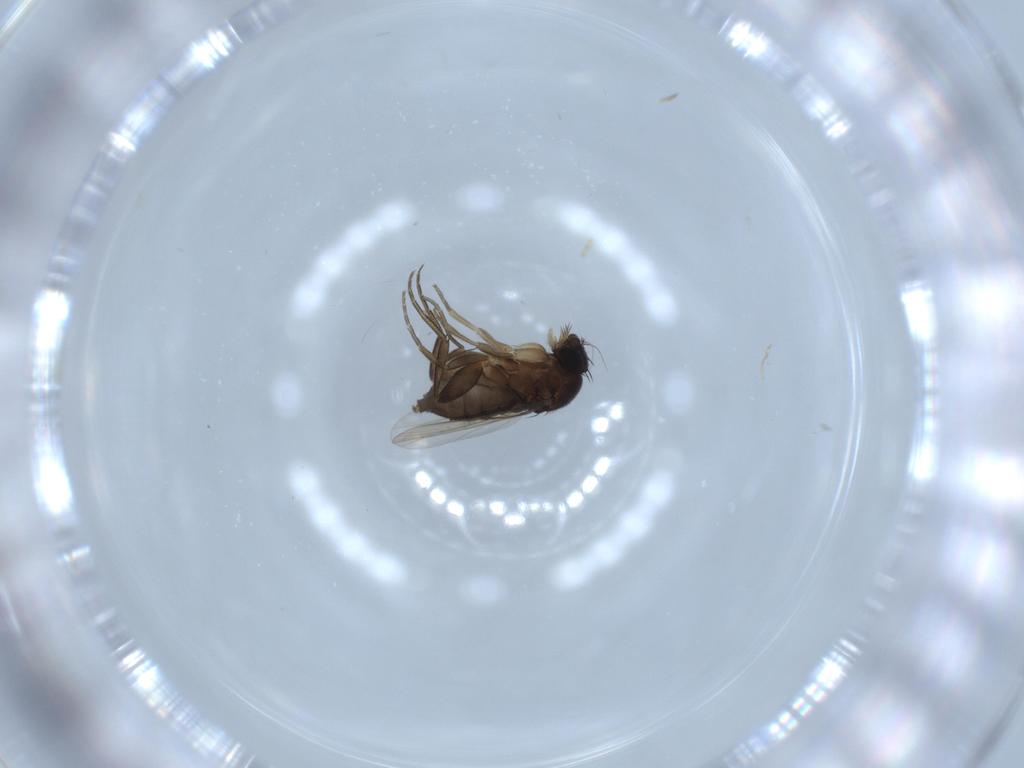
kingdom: Animalia
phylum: Arthropoda
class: Insecta
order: Diptera
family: Phoridae
